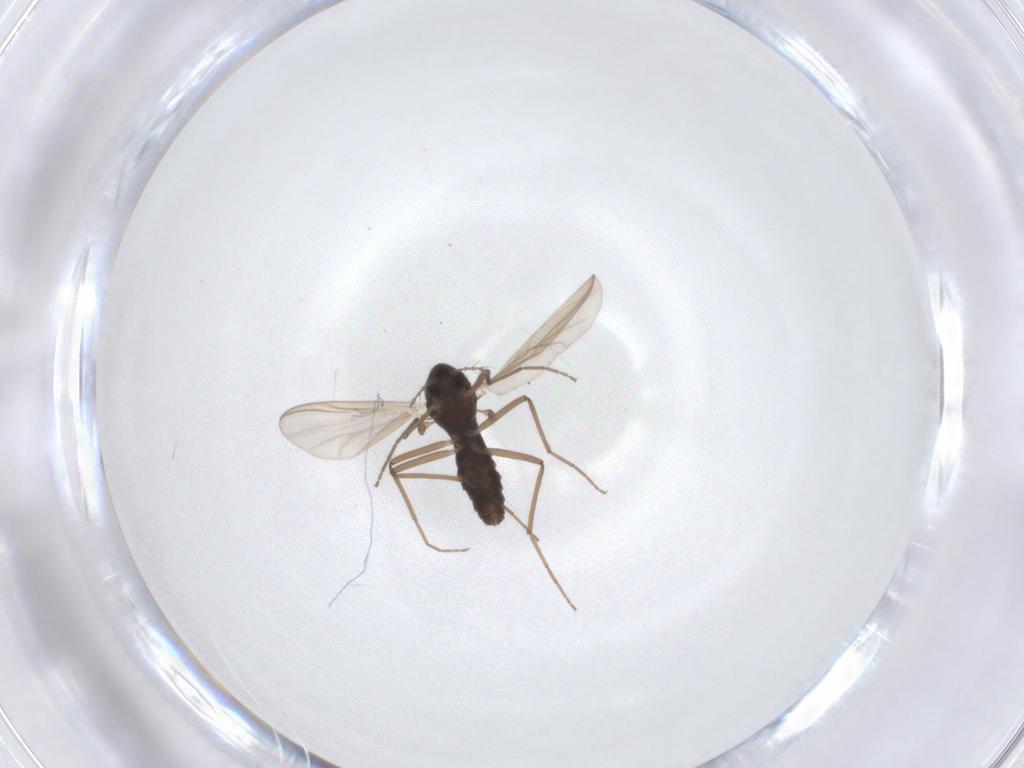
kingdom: Animalia
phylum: Arthropoda
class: Insecta
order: Diptera
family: Chironomidae
